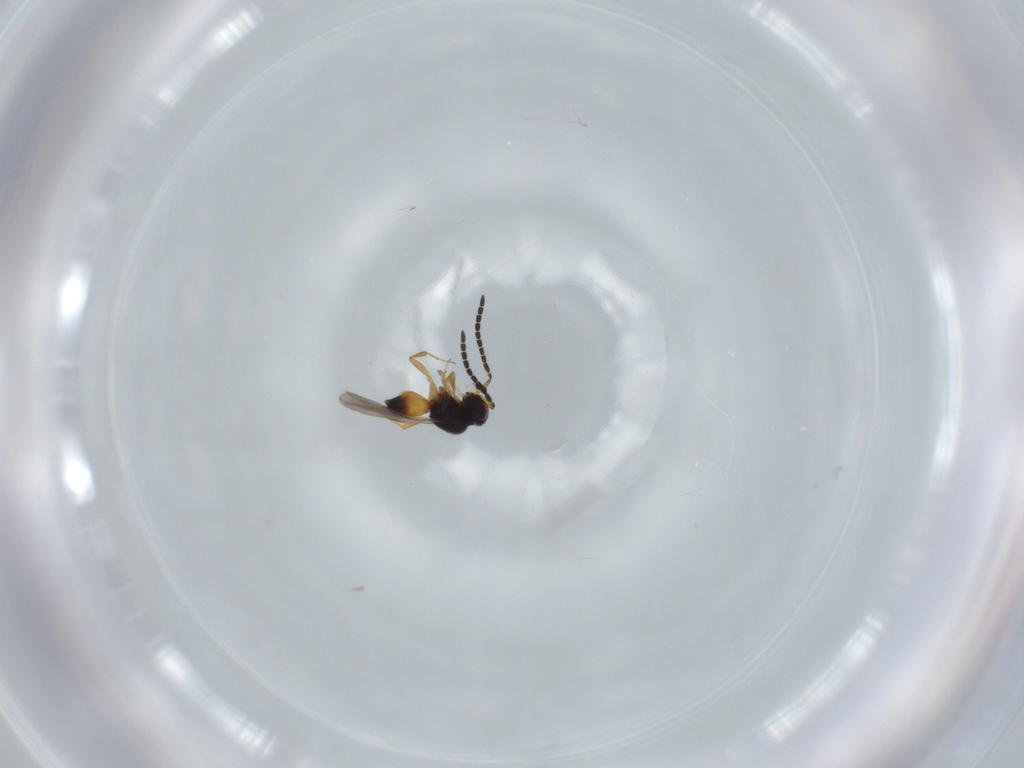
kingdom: Animalia
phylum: Arthropoda
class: Insecta
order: Hymenoptera
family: Ceraphronidae
